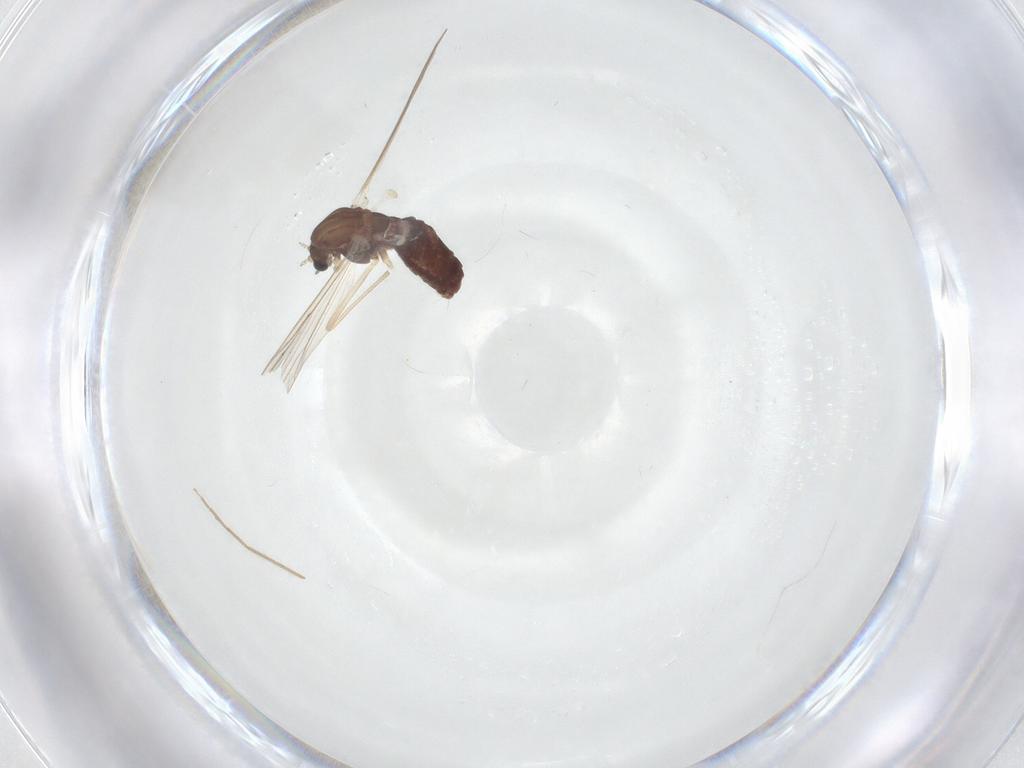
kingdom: Animalia
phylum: Arthropoda
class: Insecta
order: Diptera
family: Chironomidae
